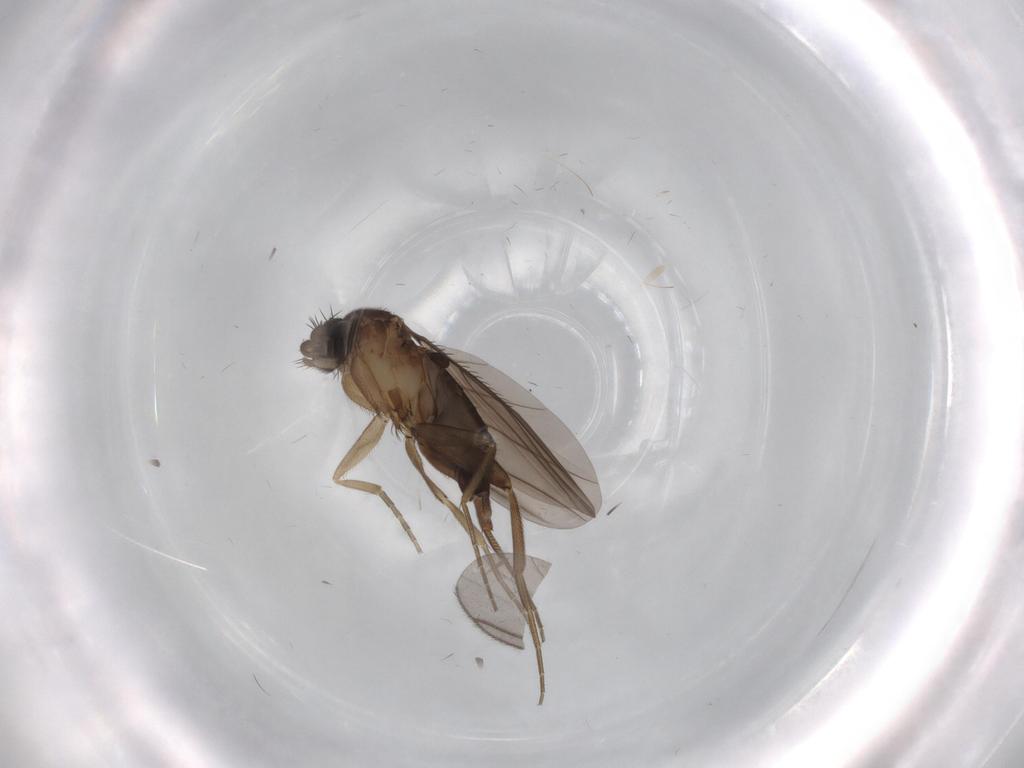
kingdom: Animalia
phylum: Arthropoda
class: Insecta
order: Diptera
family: Phoridae
